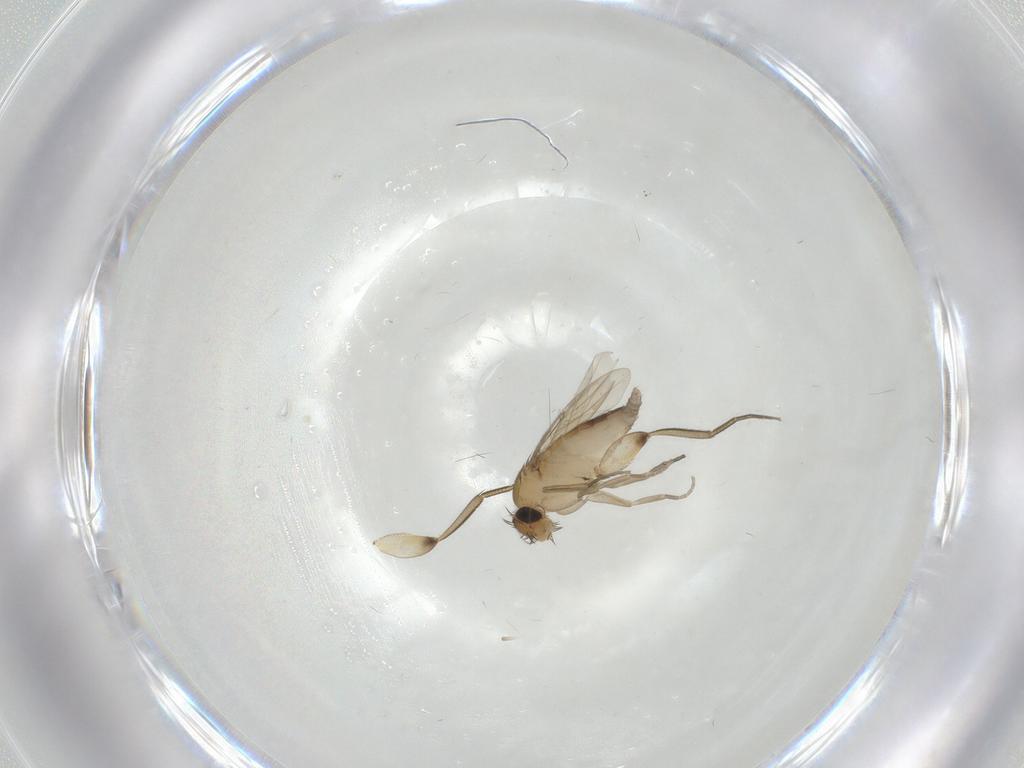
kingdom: Animalia
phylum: Arthropoda
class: Insecta
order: Diptera
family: Phoridae
